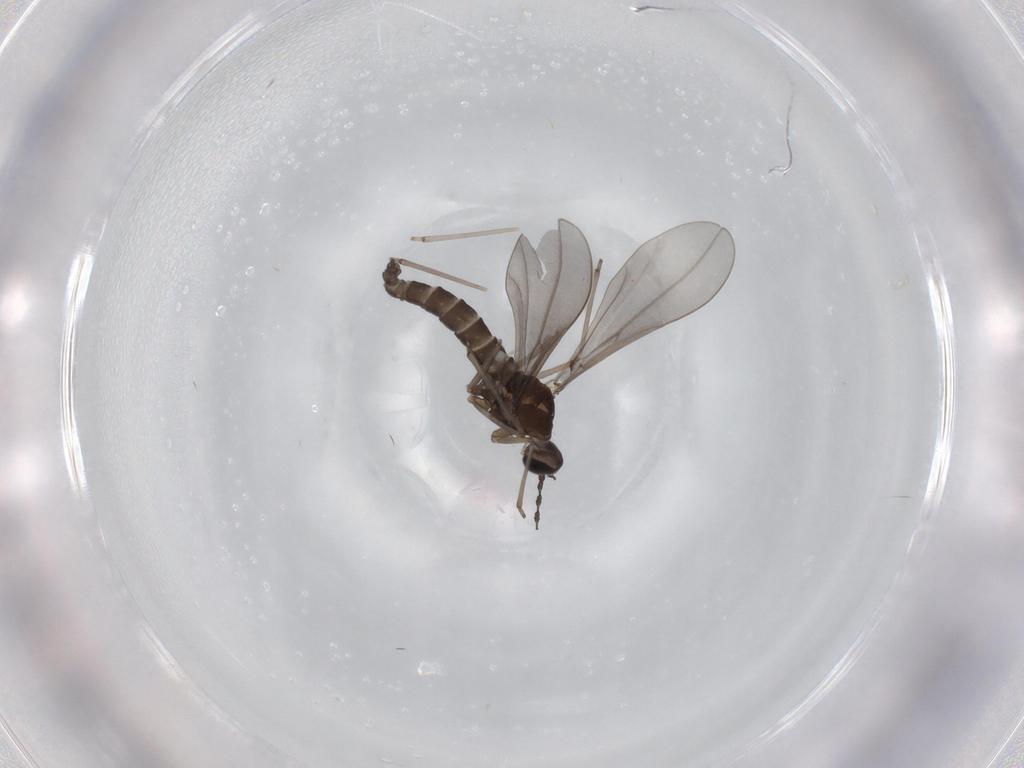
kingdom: Animalia
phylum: Arthropoda
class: Insecta
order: Diptera
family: Cecidomyiidae
